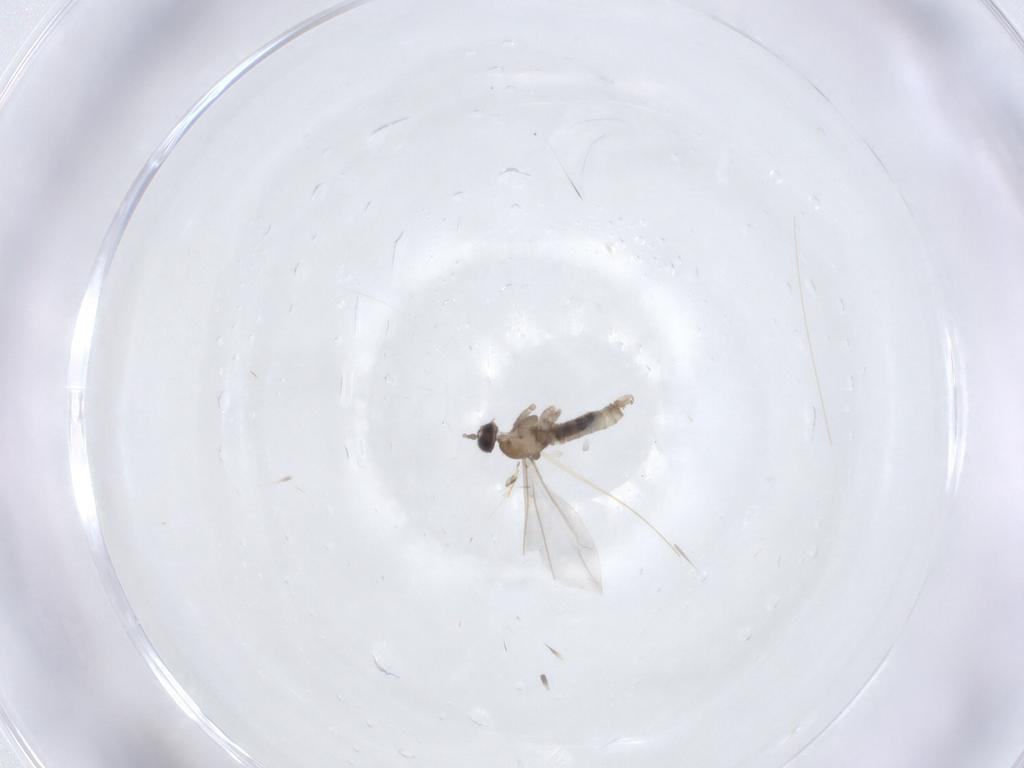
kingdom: Animalia
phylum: Arthropoda
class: Insecta
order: Diptera
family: Cecidomyiidae
